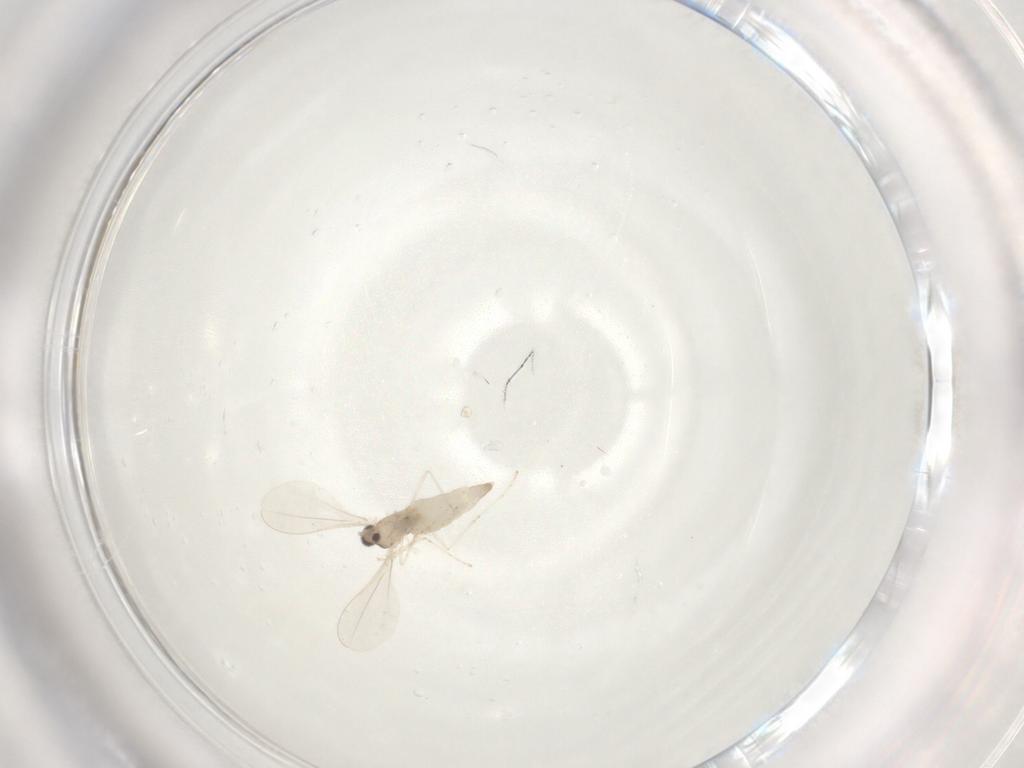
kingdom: Animalia
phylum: Arthropoda
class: Insecta
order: Diptera
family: Cecidomyiidae
